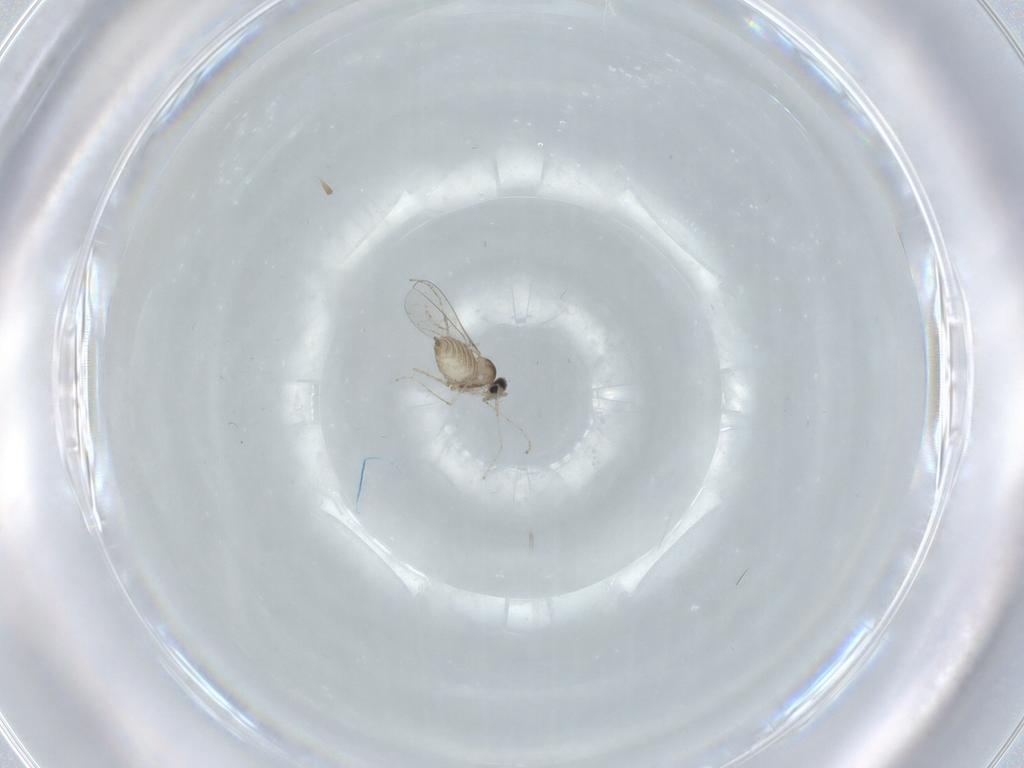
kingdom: Animalia
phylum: Arthropoda
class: Insecta
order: Diptera
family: Cecidomyiidae
